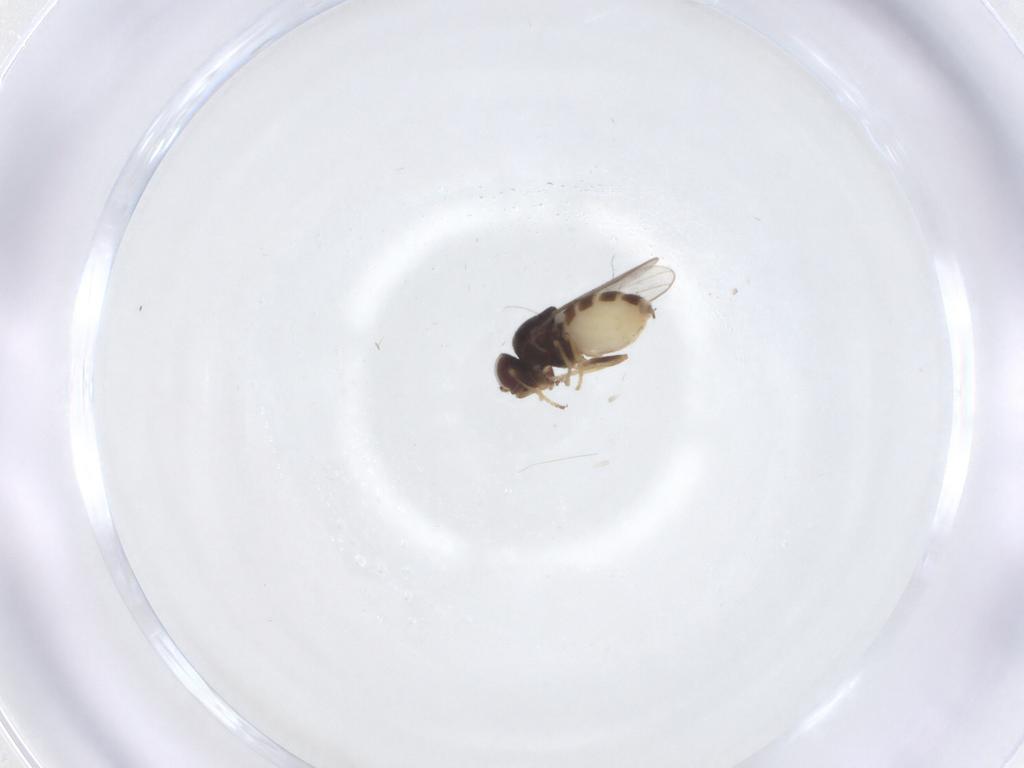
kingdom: Animalia
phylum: Arthropoda
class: Insecta
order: Diptera
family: Chloropidae
